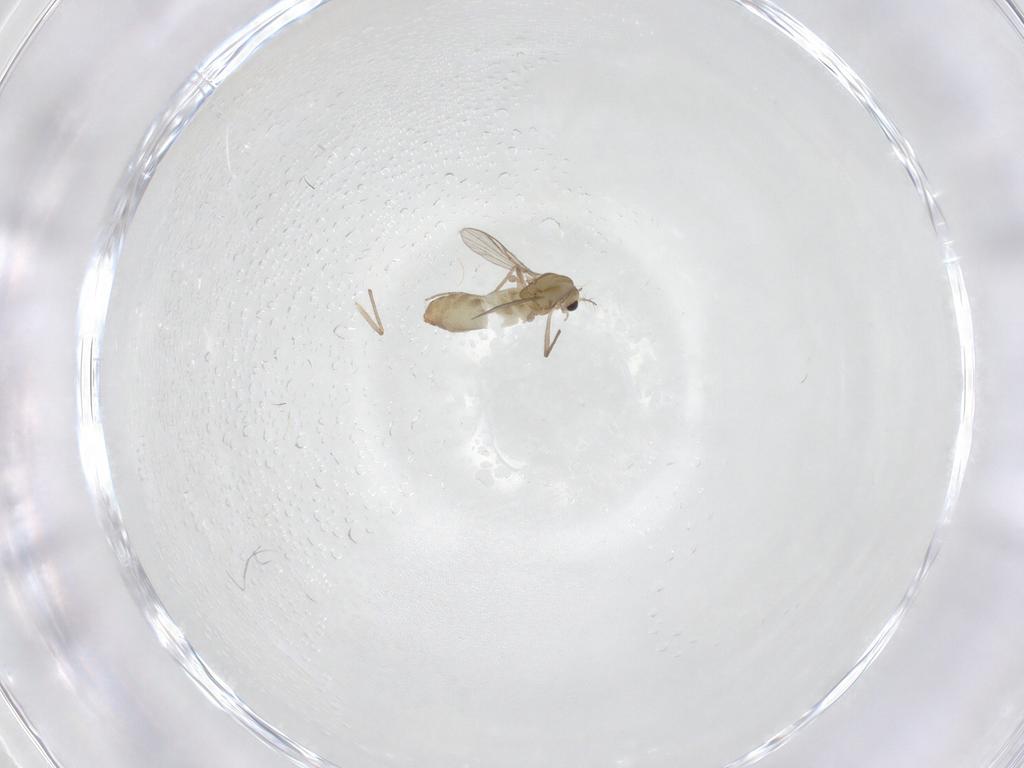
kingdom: Animalia
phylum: Arthropoda
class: Insecta
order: Diptera
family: Chironomidae
